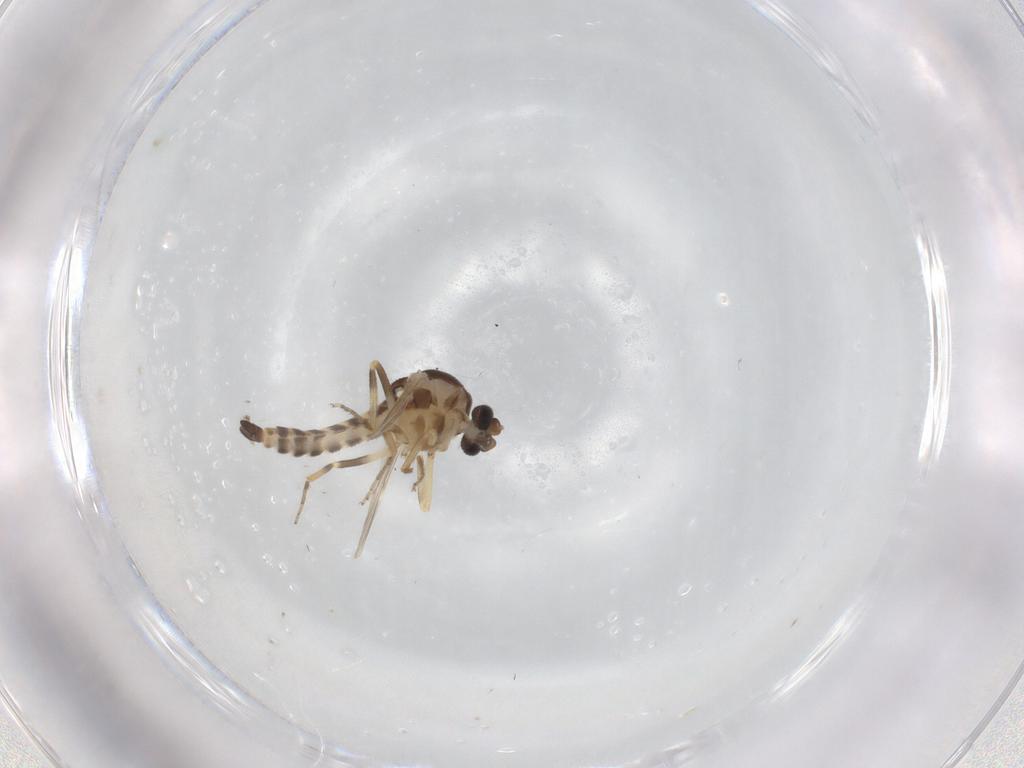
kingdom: Animalia
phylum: Arthropoda
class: Insecta
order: Diptera
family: Ceratopogonidae
